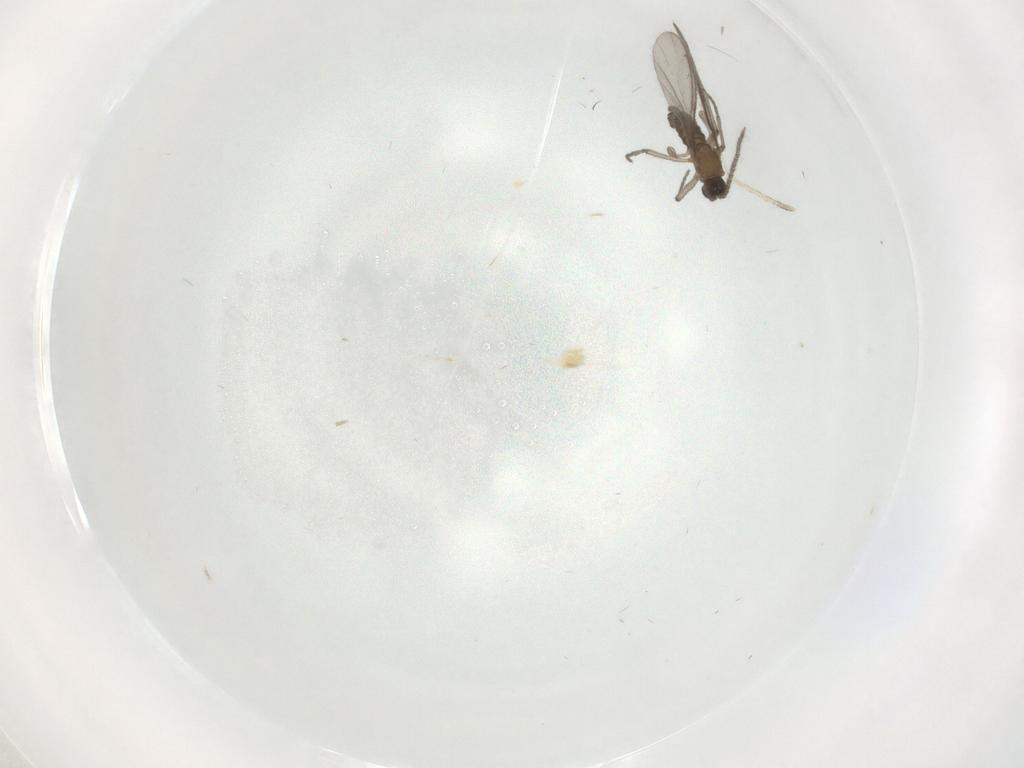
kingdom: Animalia
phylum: Arthropoda
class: Insecta
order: Diptera
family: Sciaridae
